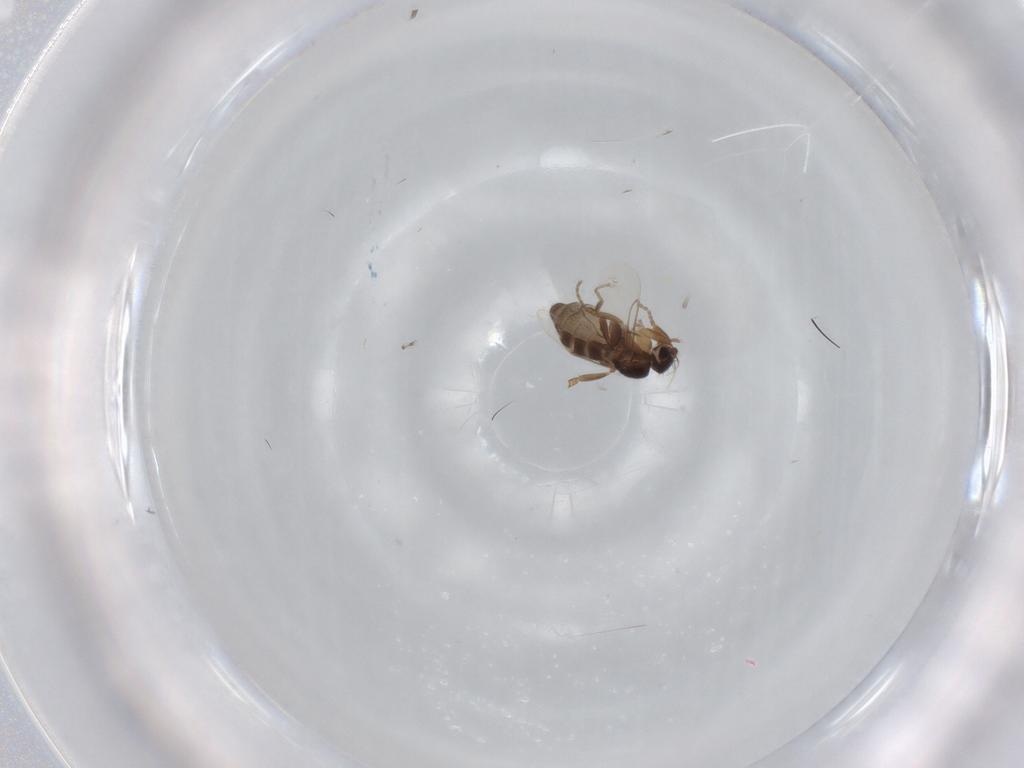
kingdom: Animalia
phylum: Arthropoda
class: Insecta
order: Diptera
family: Phoridae
